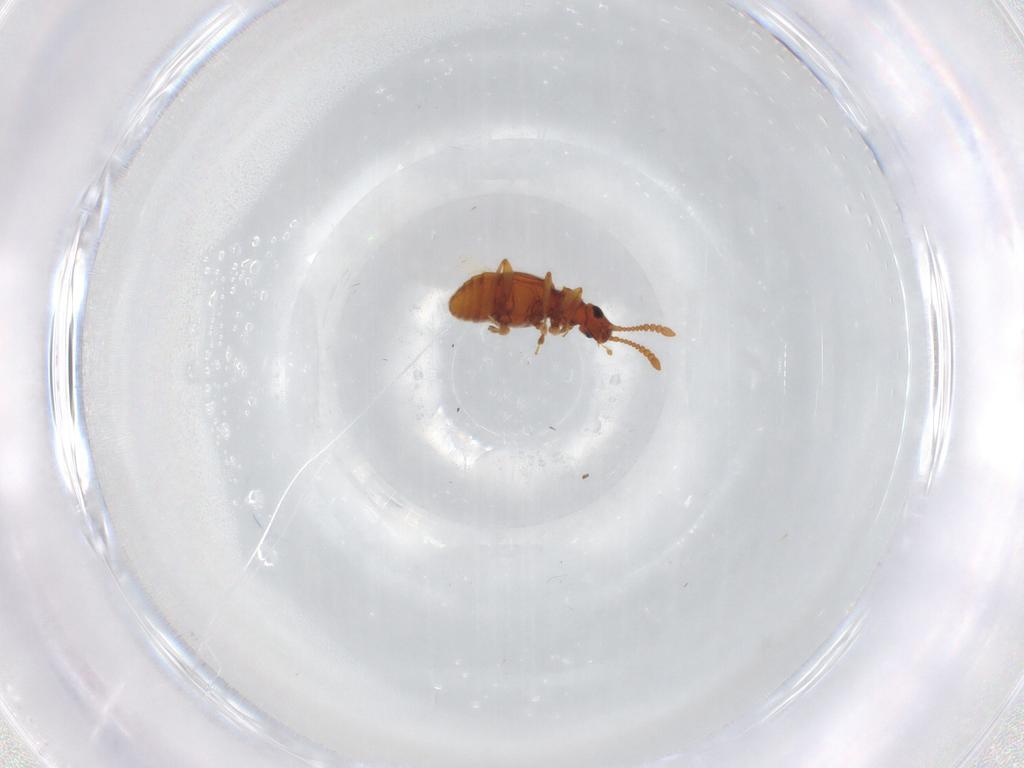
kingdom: Animalia
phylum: Arthropoda
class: Insecta
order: Coleoptera
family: Staphylinidae
